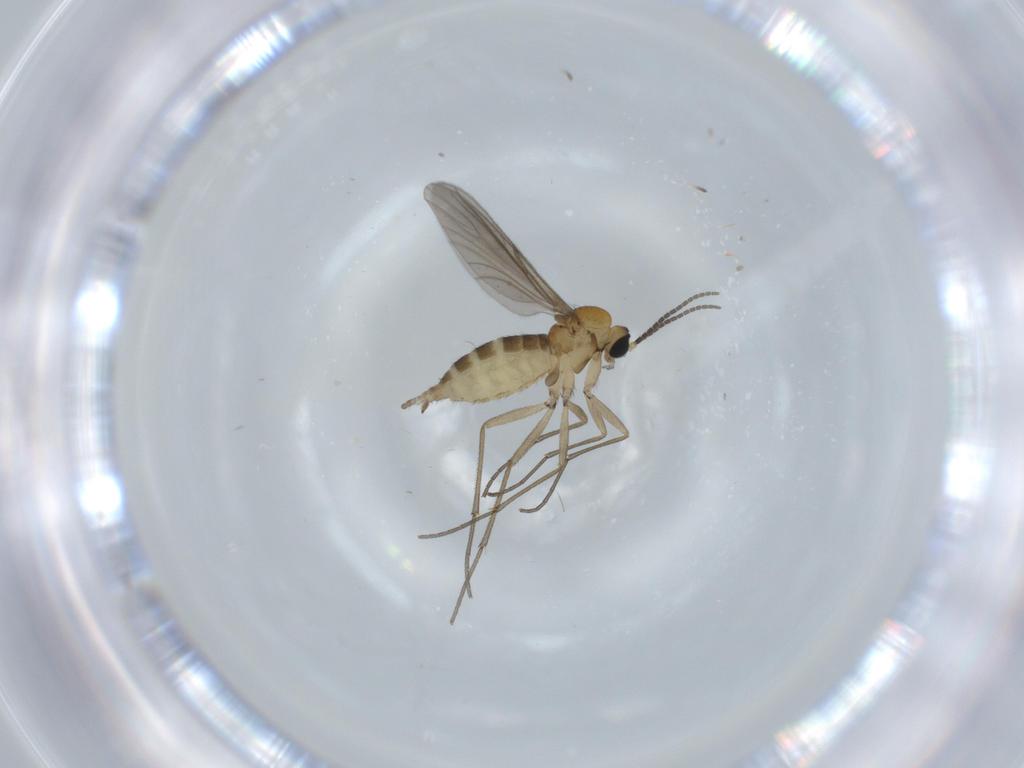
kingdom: Animalia
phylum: Arthropoda
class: Insecta
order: Diptera
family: Sciaridae
